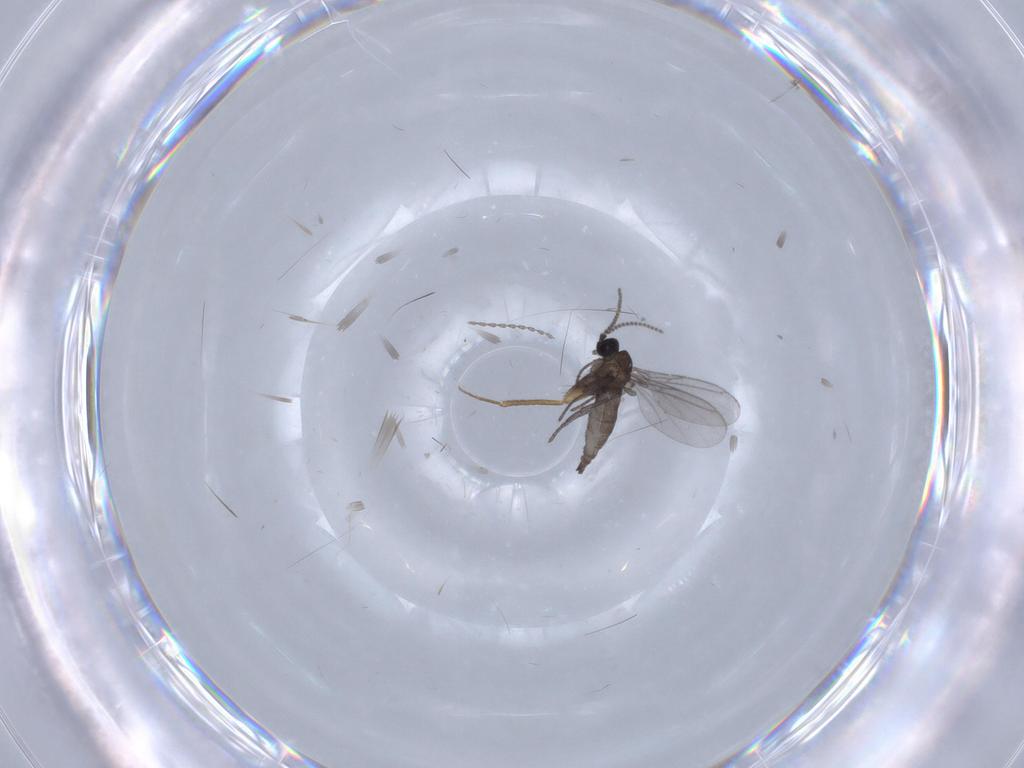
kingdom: Animalia
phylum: Arthropoda
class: Insecta
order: Diptera
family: Cecidomyiidae
